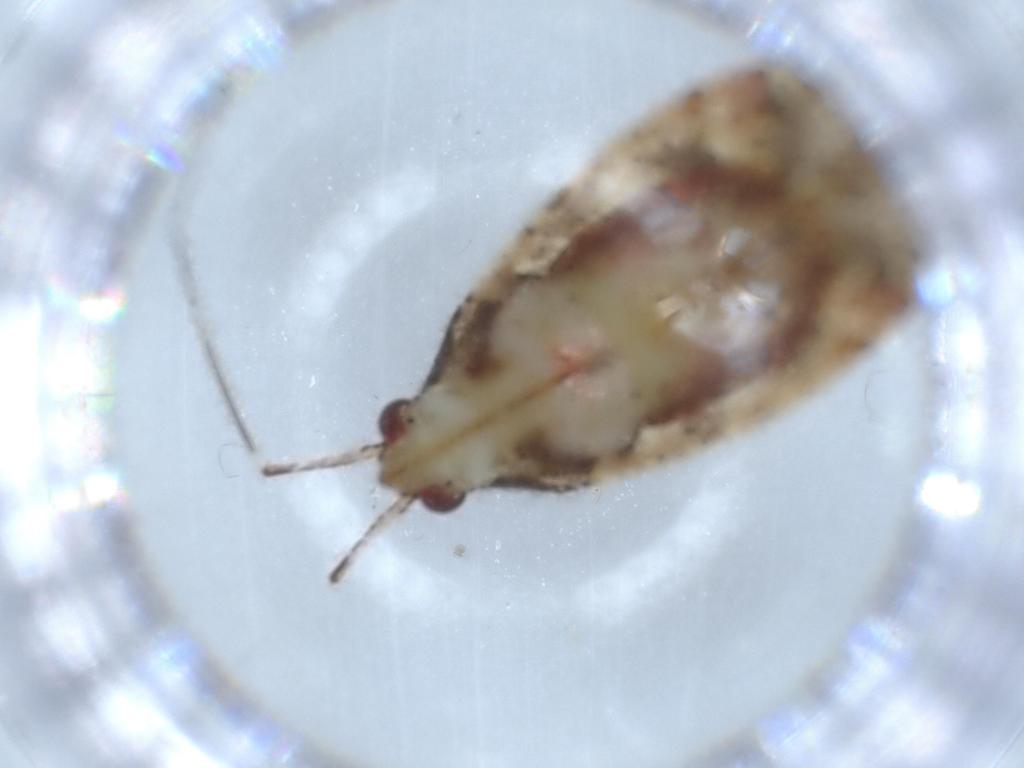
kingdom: Animalia
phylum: Arthropoda
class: Insecta
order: Hemiptera
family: Miridae
